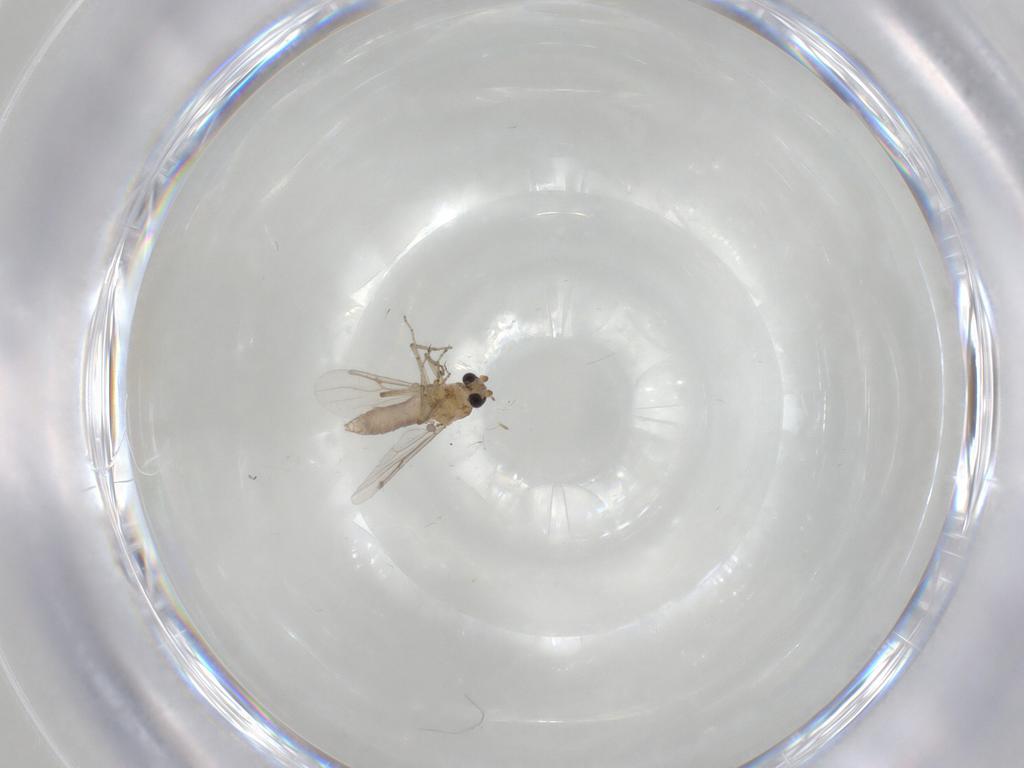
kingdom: Animalia
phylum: Arthropoda
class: Insecta
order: Diptera
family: Ceratopogonidae
